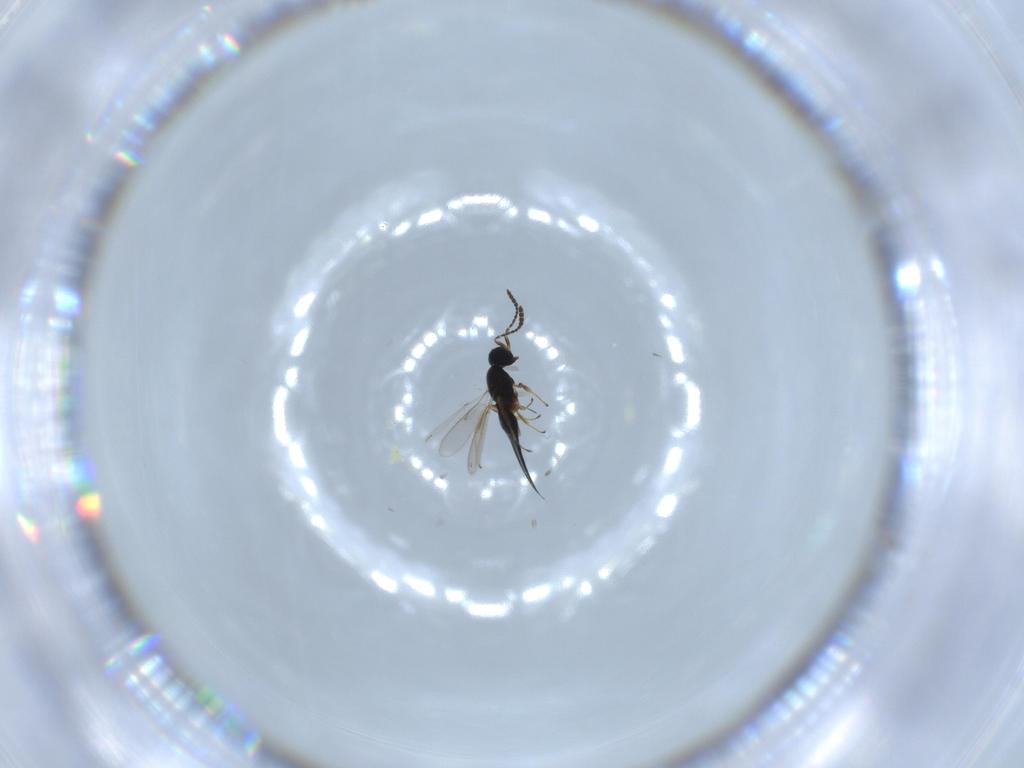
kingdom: Animalia
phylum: Arthropoda
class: Insecta
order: Hymenoptera
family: Scelionidae
